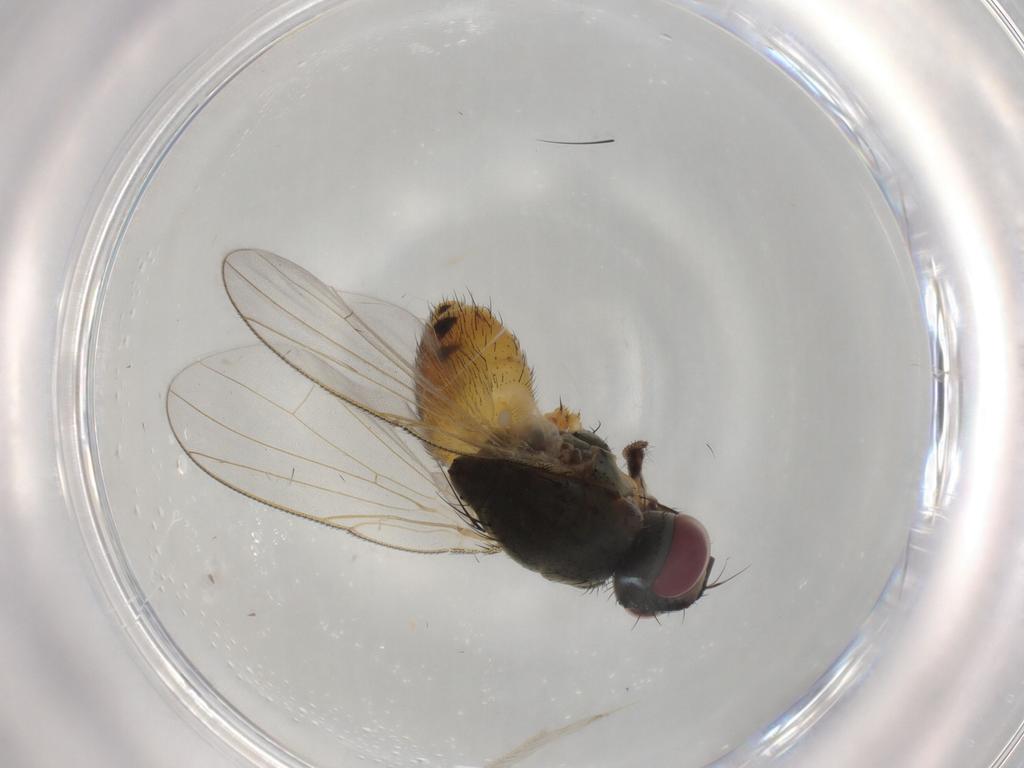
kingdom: Animalia
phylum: Arthropoda
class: Insecta
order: Diptera
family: Muscidae
